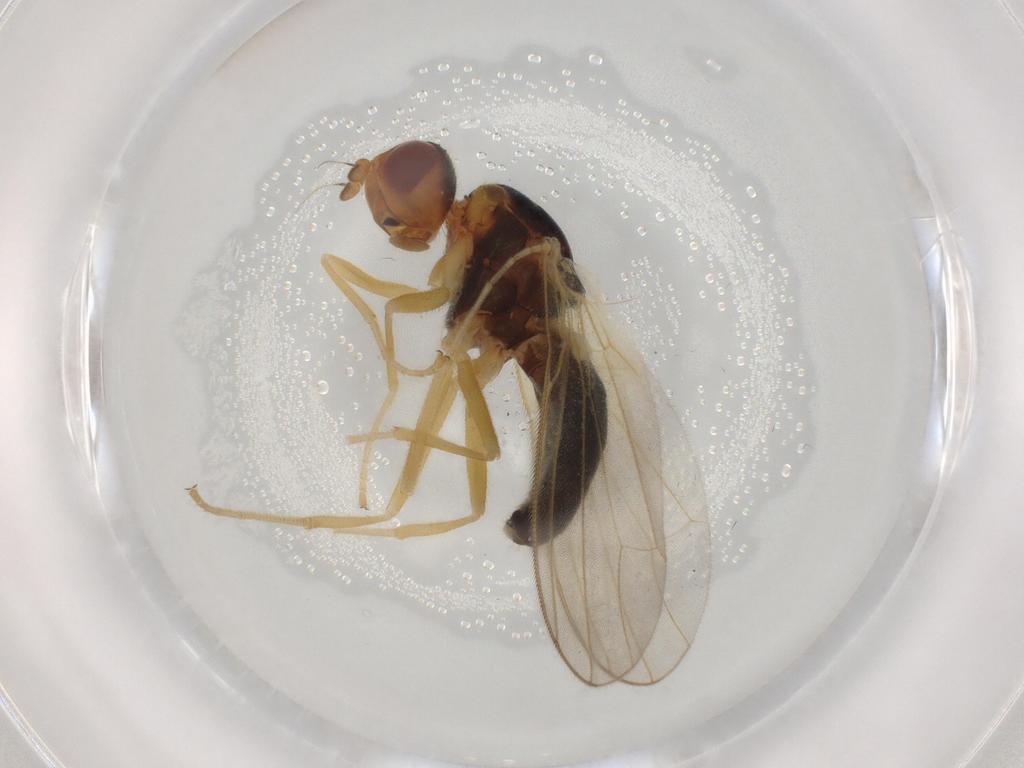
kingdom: Animalia
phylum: Arthropoda
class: Insecta
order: Diptera
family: Psilidae
